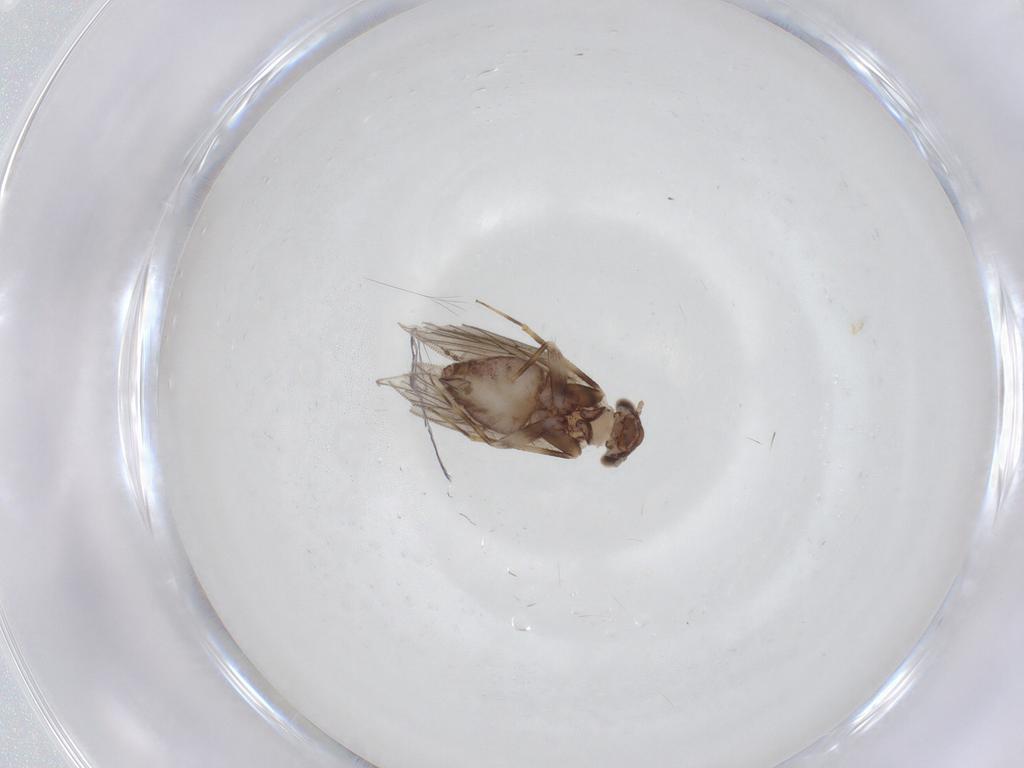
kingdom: Animalia
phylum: Arthropoda
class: Insecta
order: Psocodea
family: Lepidopsocidae
